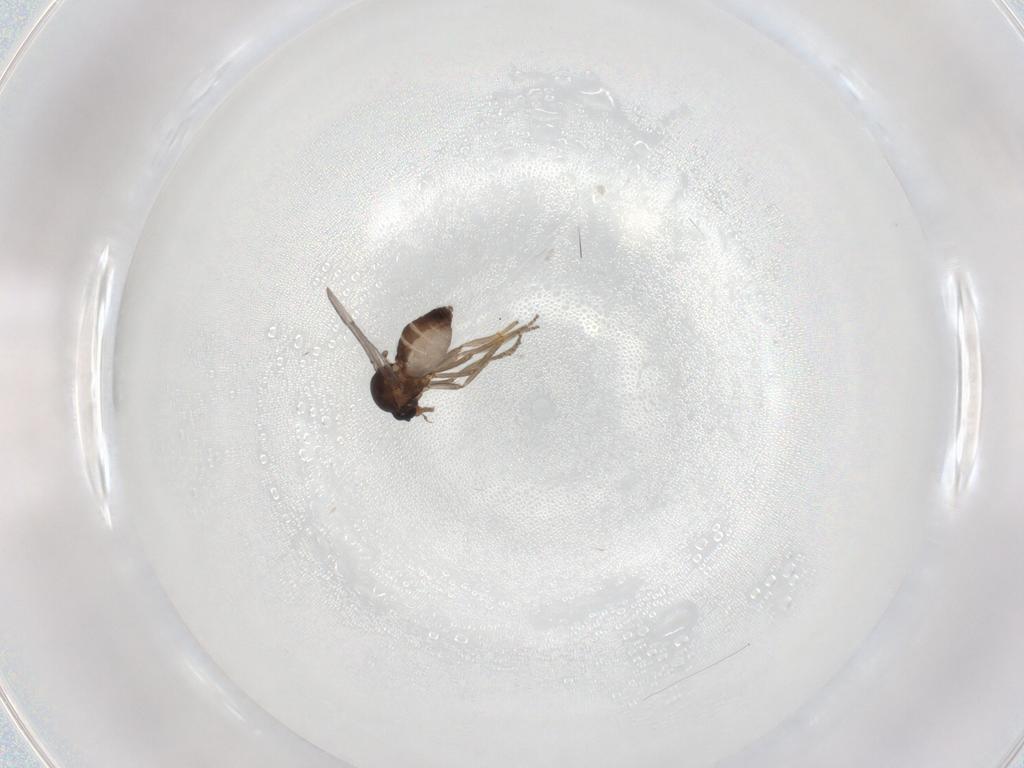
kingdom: Animalia
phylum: Arthropoda
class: Insecta
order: Diptera
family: Ceratopogonidae
